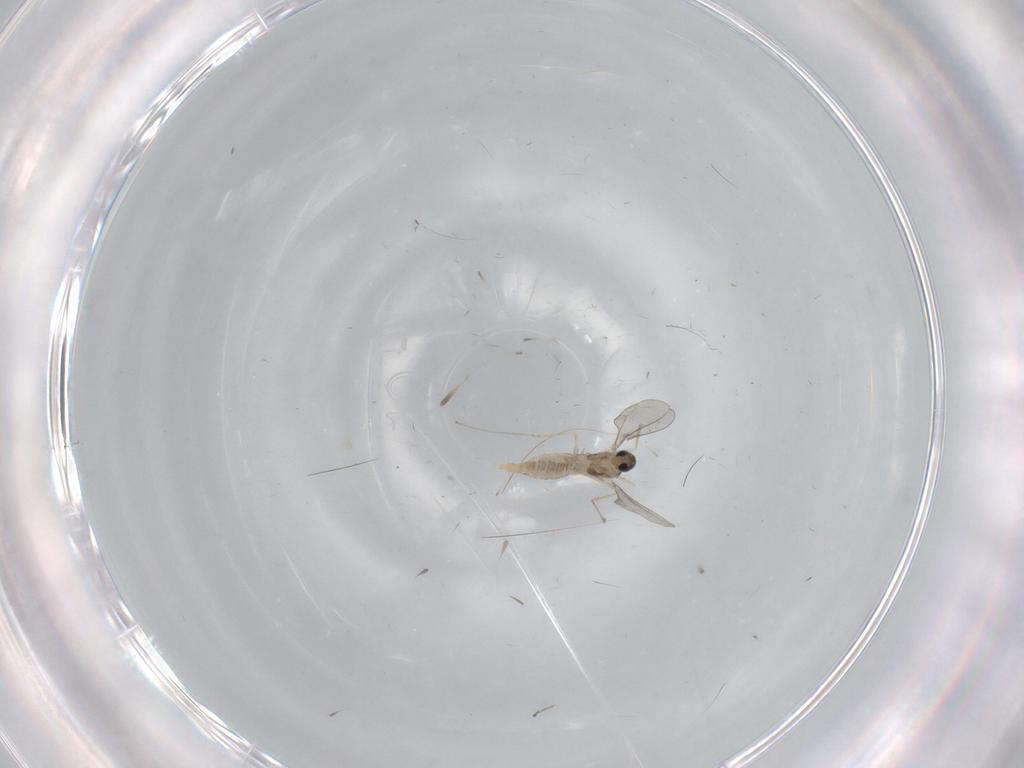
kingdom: Animalia
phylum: Arthropoda
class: Insecta
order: Diptera
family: Cecidomyiidae
